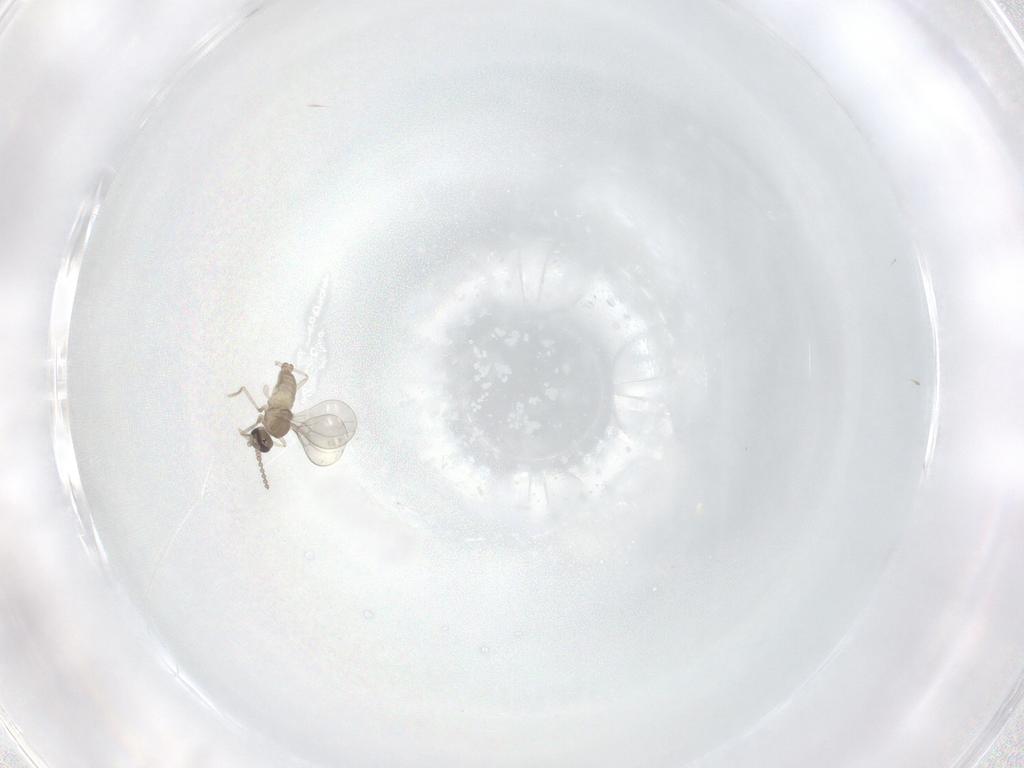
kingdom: Animalia
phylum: Arthropoda
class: Insecta
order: Diptera
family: Cecidomyiidae
